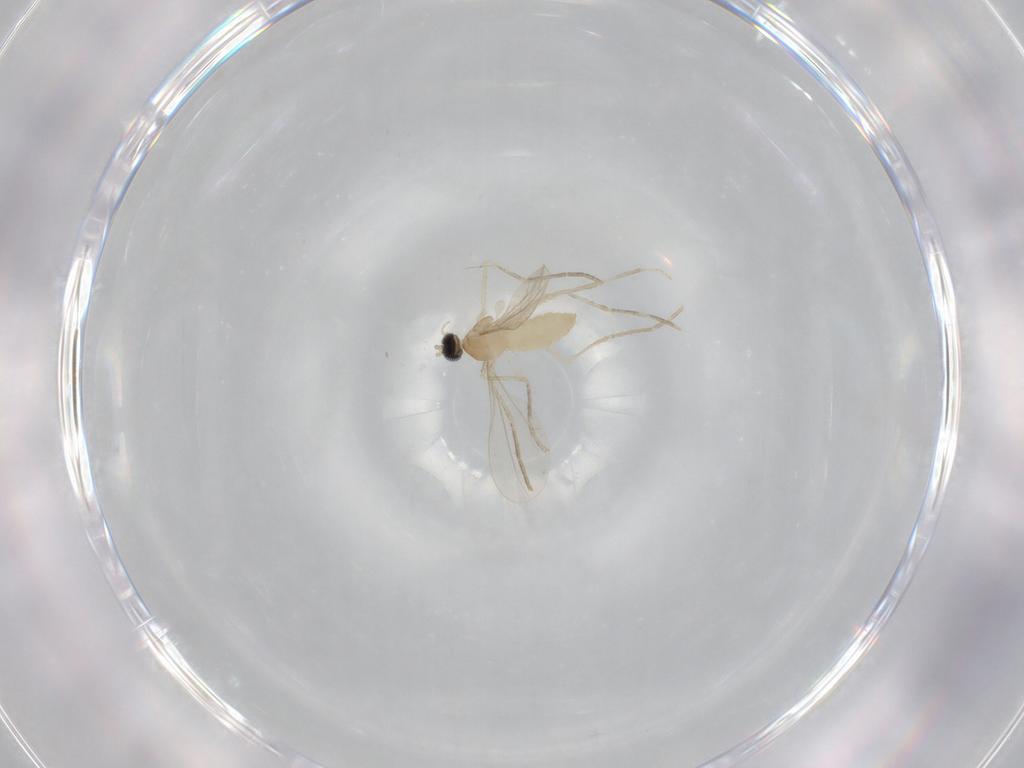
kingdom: Animalia
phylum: Arthropoda
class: Insecta
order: Diptera
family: Cecidomyiidae
